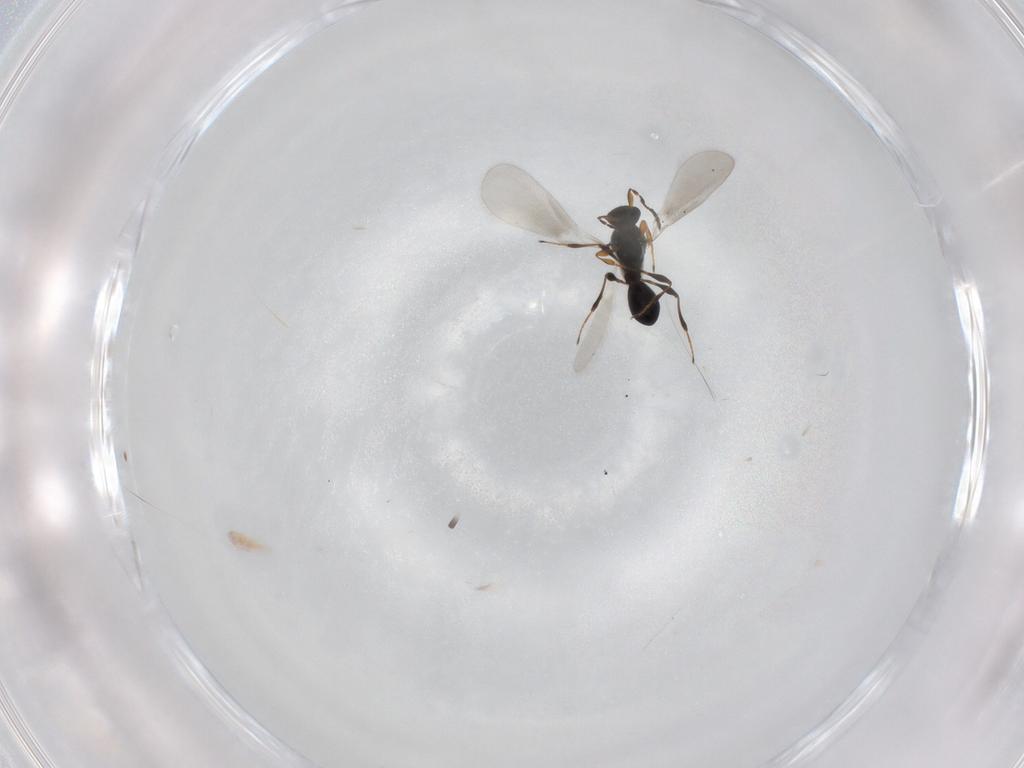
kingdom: Animalia
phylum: Arthropoda
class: Insecta
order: Hymenoptera
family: Platygastridae
